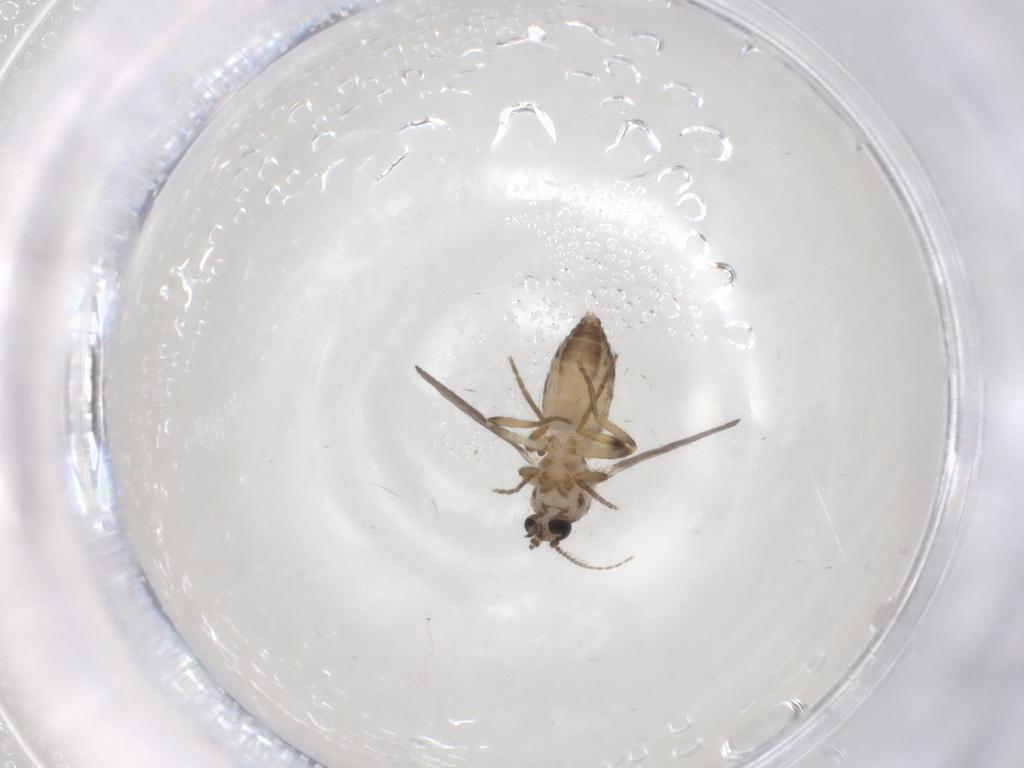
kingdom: Animalia
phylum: Arthropoda
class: Insecta
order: Diptera
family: Ceratopogonidae
